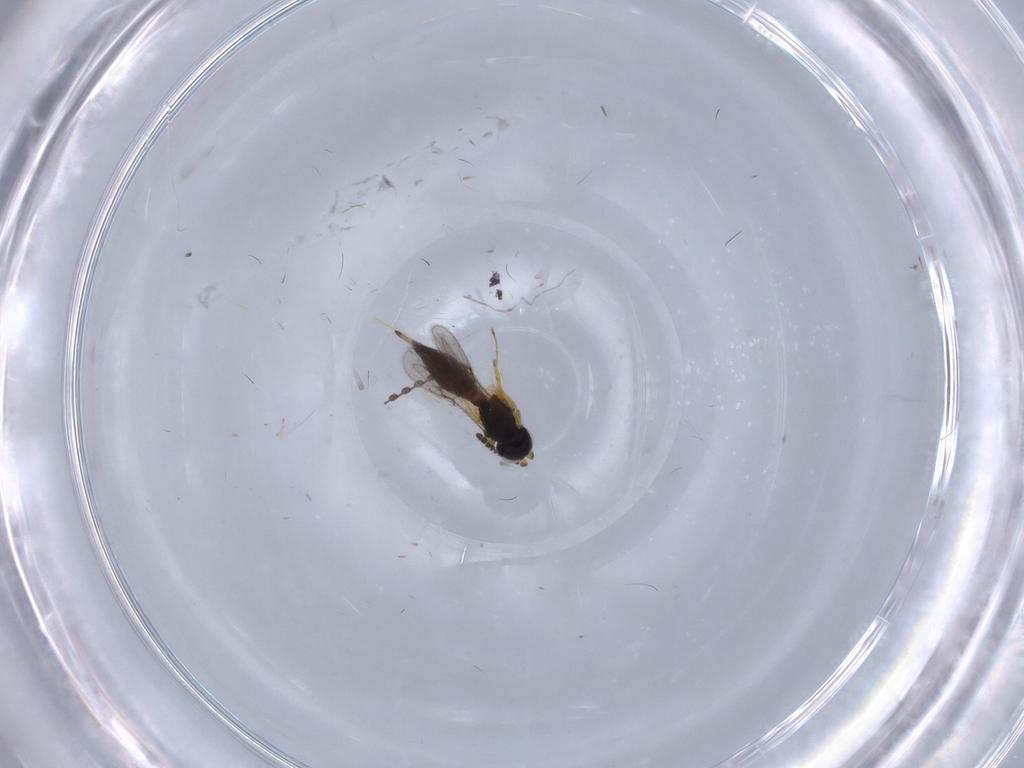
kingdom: Animalia
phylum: Arthropoda
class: Insecta
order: Hymenoptera
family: Scelionidae
